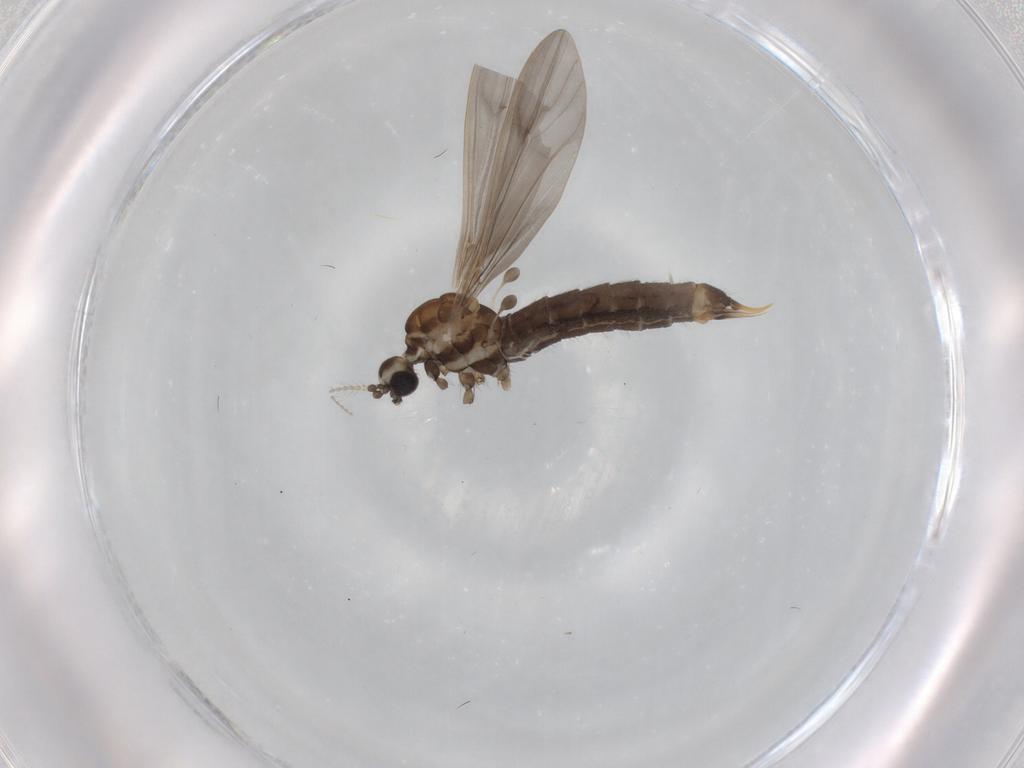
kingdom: Animalia
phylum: Arthropoda
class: Insecta
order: Diptera
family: Limoniidae
